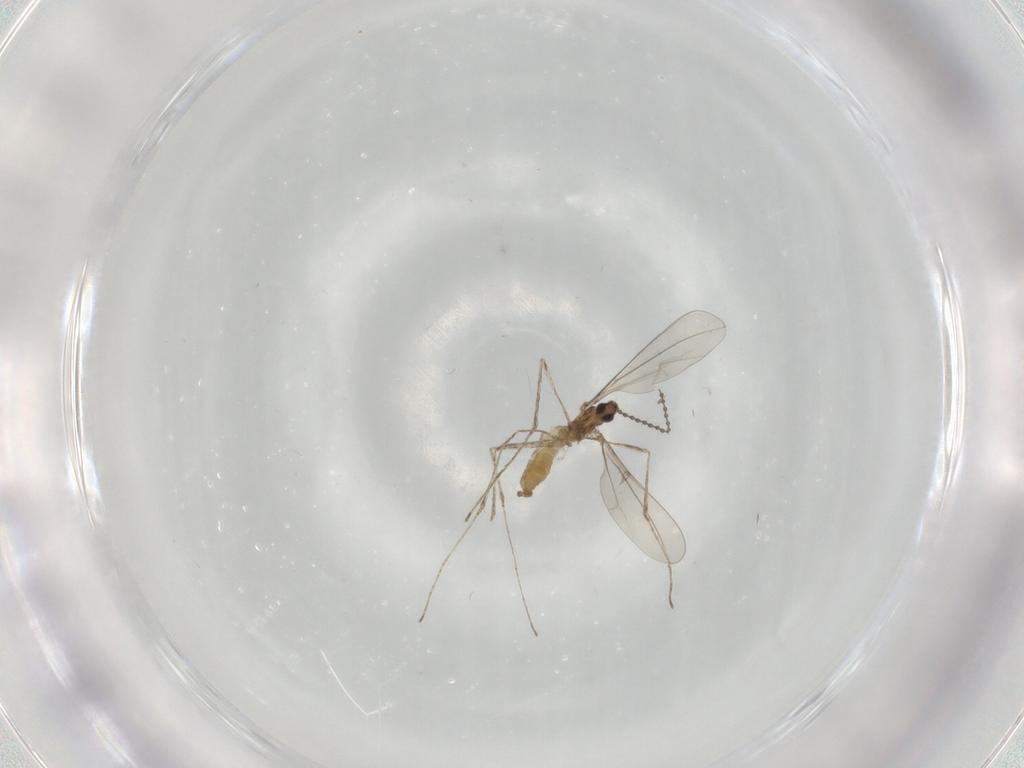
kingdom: Animalia
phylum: Arthropoda
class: Insecta
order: Diptera
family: Cecidomyiidae
